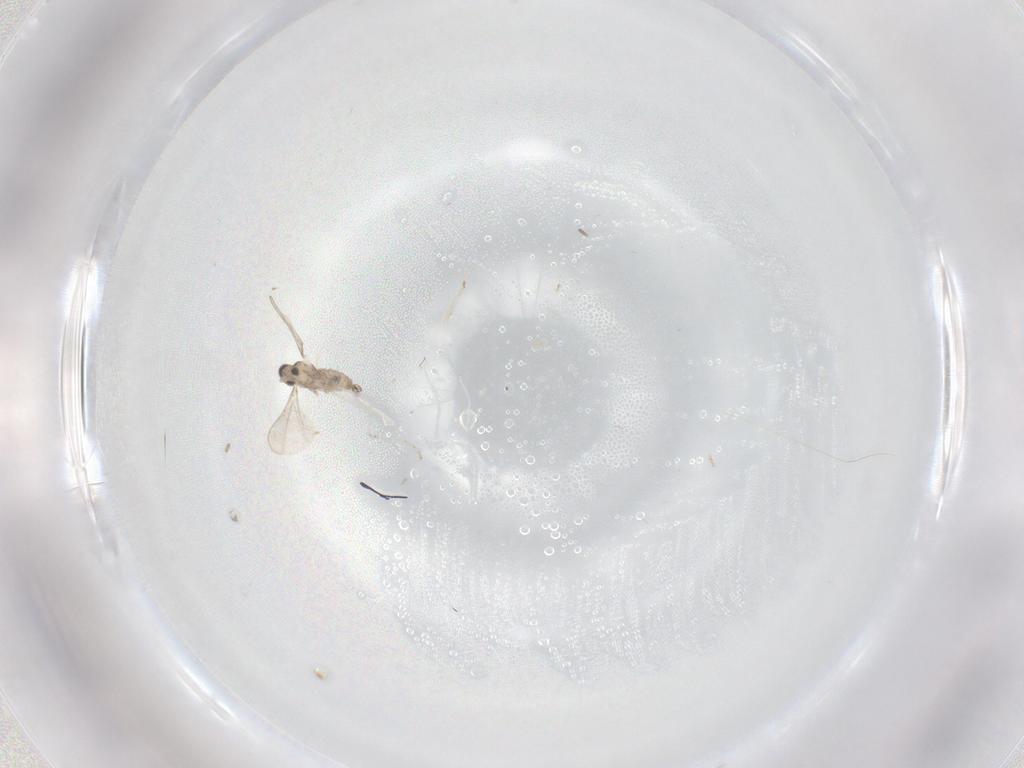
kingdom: Animalia
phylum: Arthropoda
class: Insecta
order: Diptera
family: Cecidomyiidae
